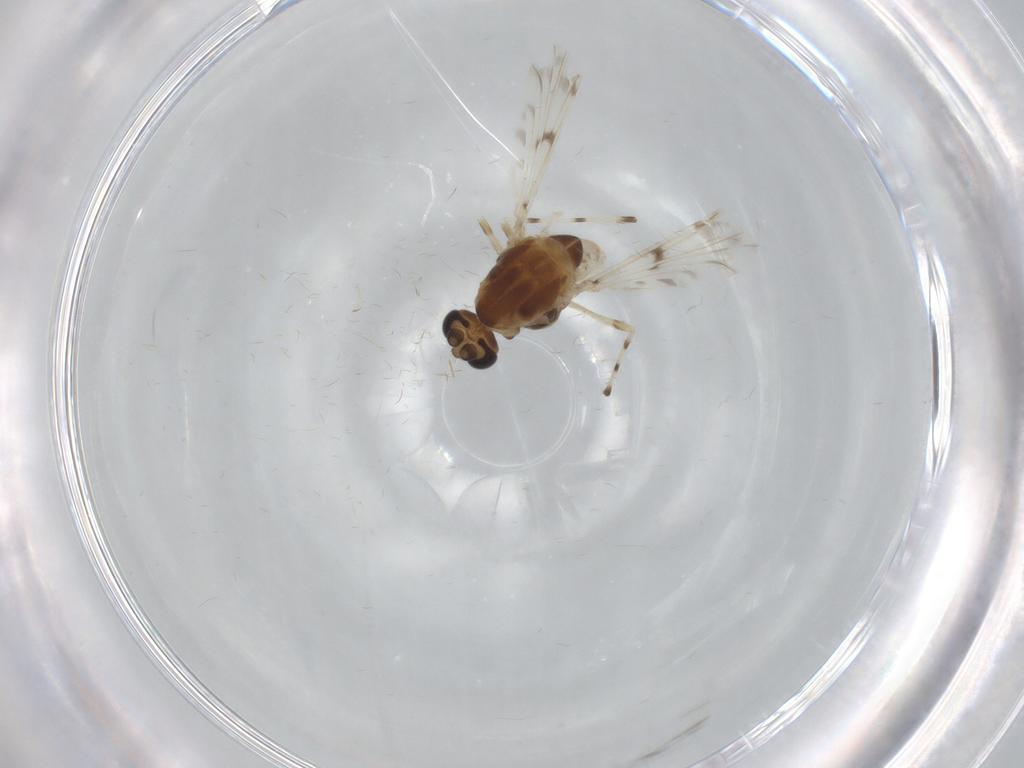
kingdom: Animalia
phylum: Arthropoda
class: Insecta
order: Diptera
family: Chironomidae
